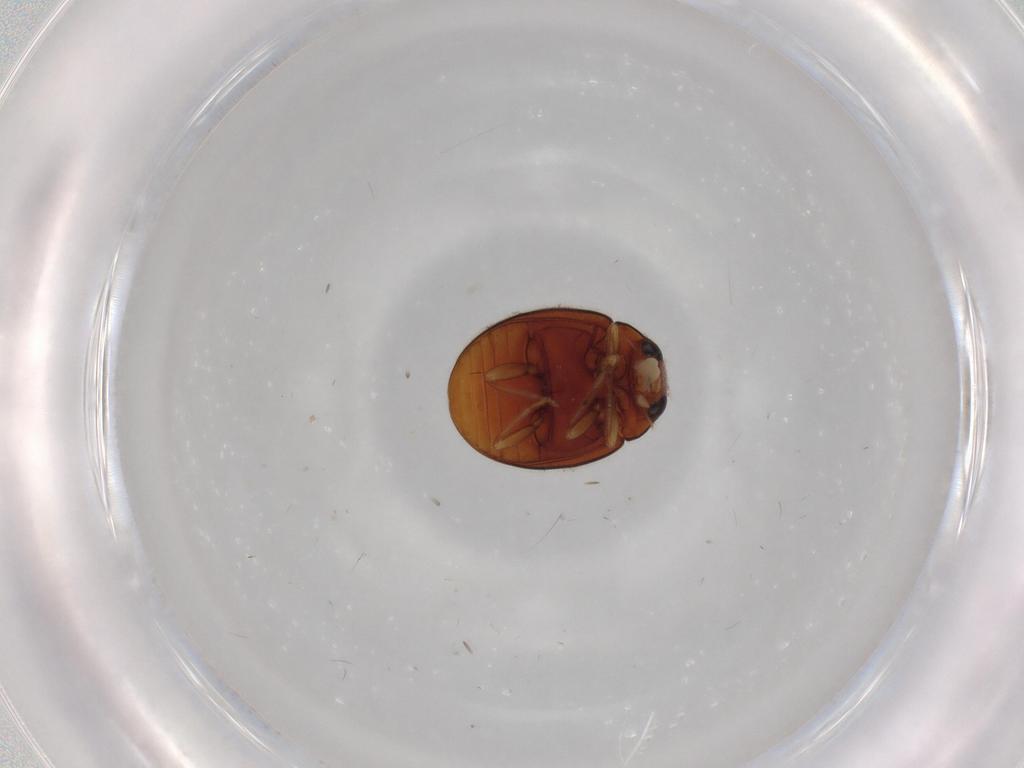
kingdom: Animalia
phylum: Arthropoda
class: Insecta
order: Coleoptera
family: Coccinellidae
